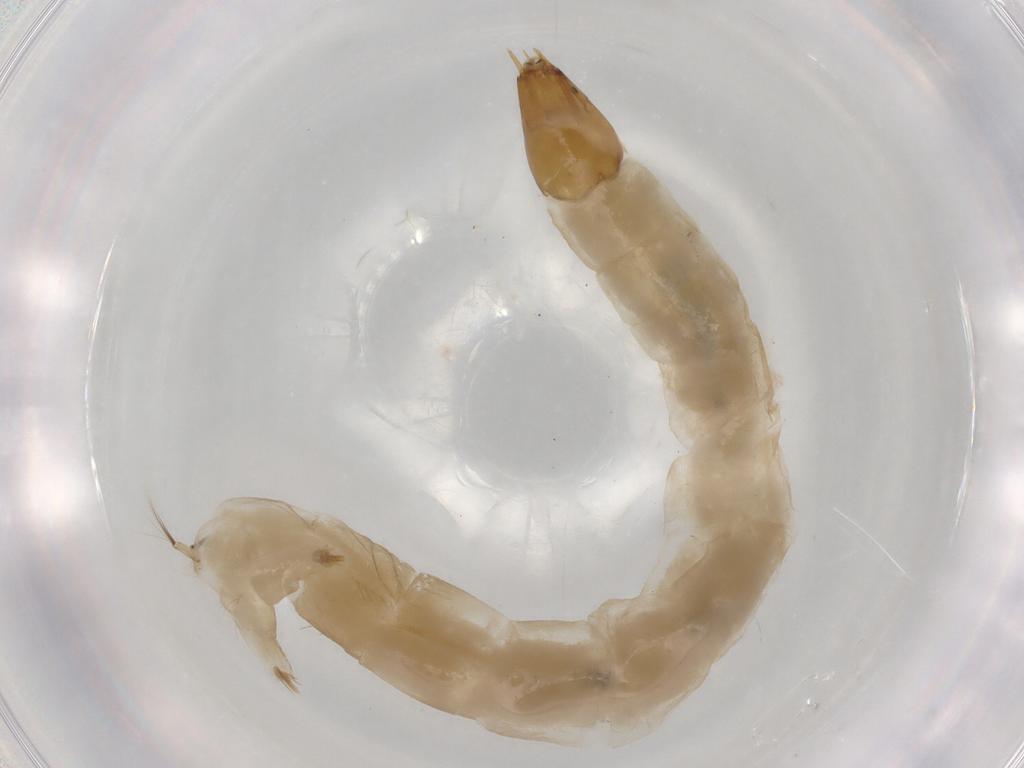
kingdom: Animalia
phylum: Arthropoda
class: Insecta
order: Diptera
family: Chironomidae
